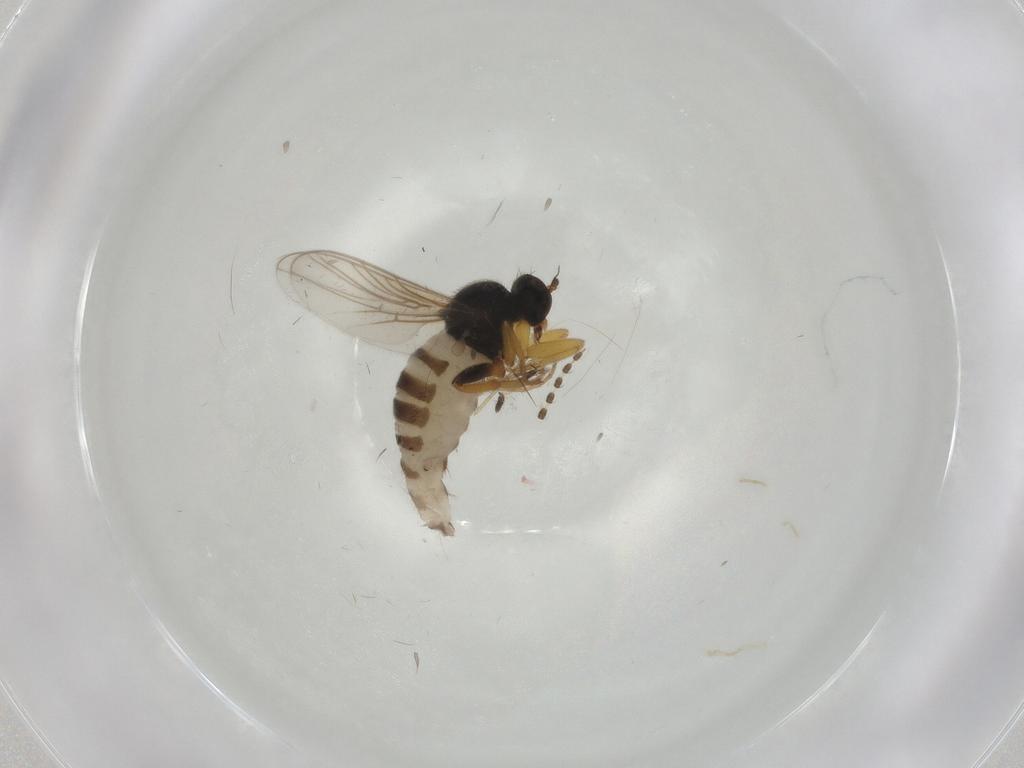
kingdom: Animalia
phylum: Arthropoda
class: Insecta
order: Diptera
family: Hybotidae
